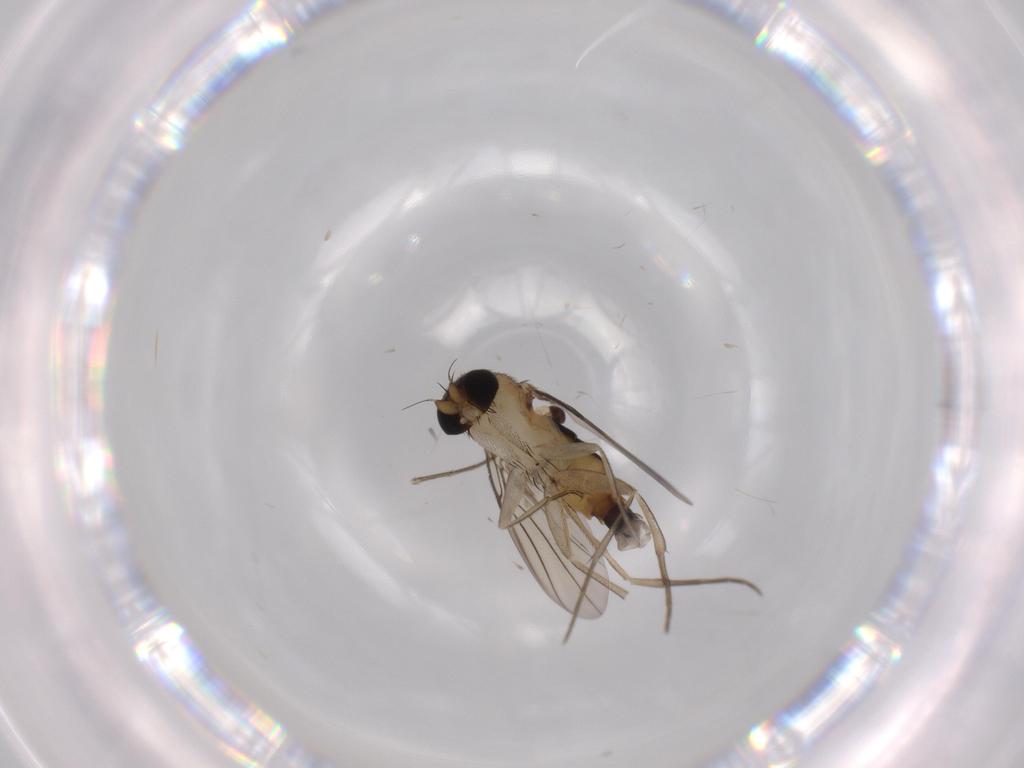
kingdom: Animalia
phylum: Arthropoda
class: Insecta
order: Diptera
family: Phoridae
